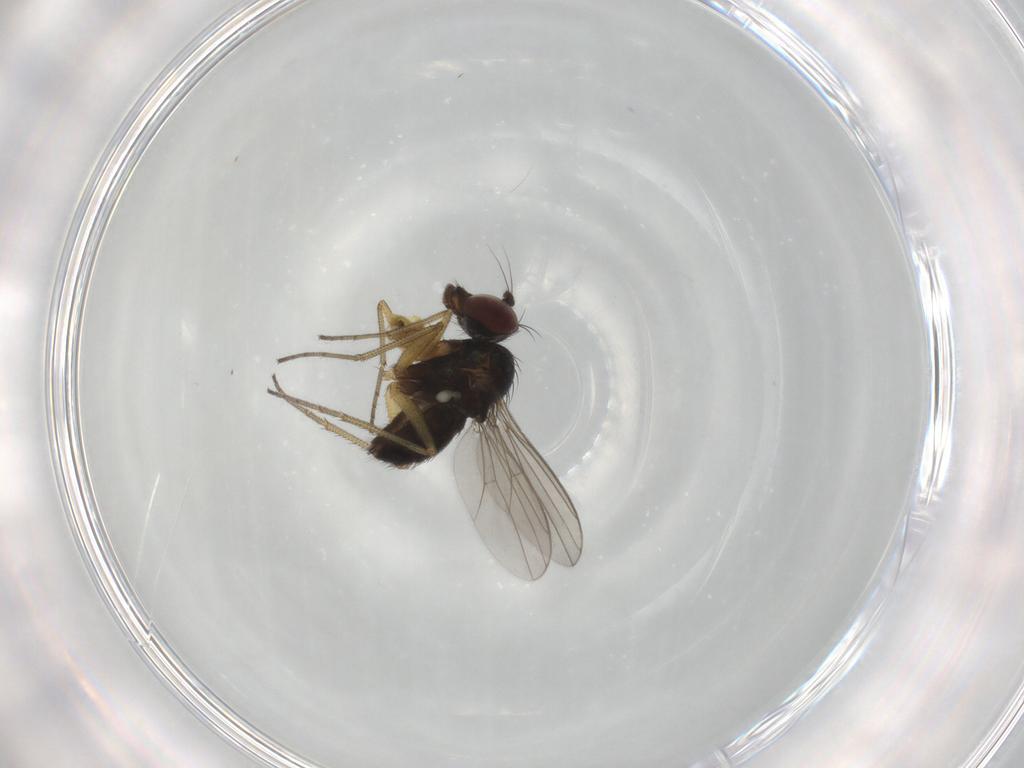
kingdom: Animalia
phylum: Arthropoda
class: Insecta
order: Diptera
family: Dolichopodidae
